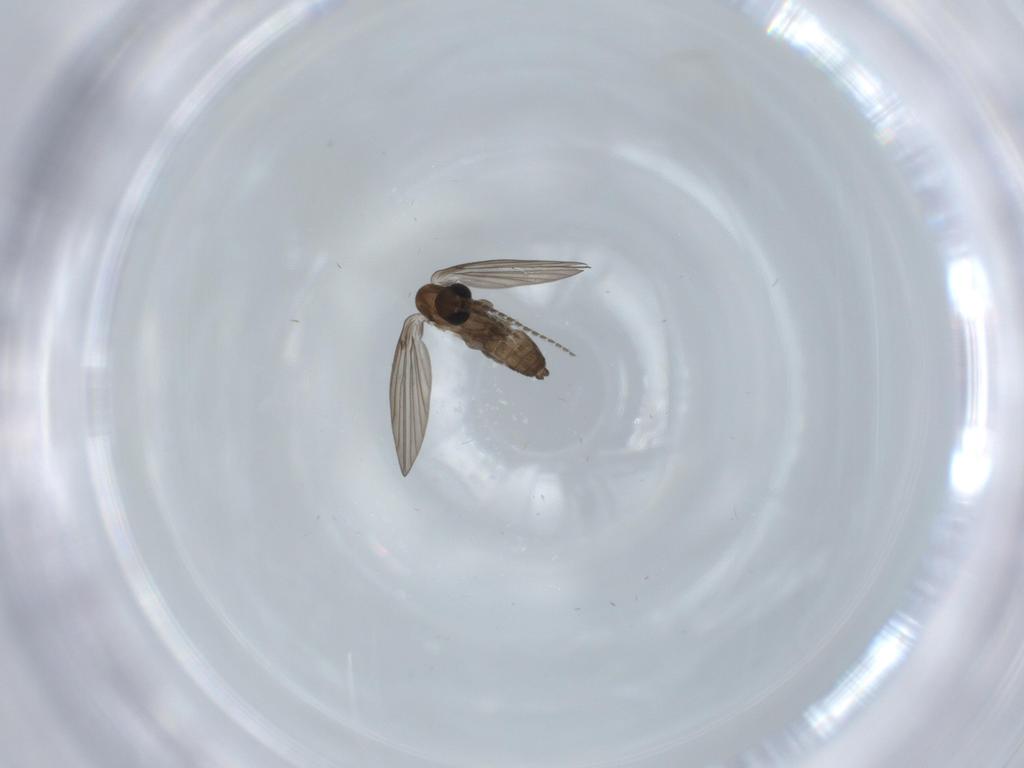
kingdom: Animalia
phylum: Arthropoda
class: Insecta
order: Diptera
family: Psychodidae
